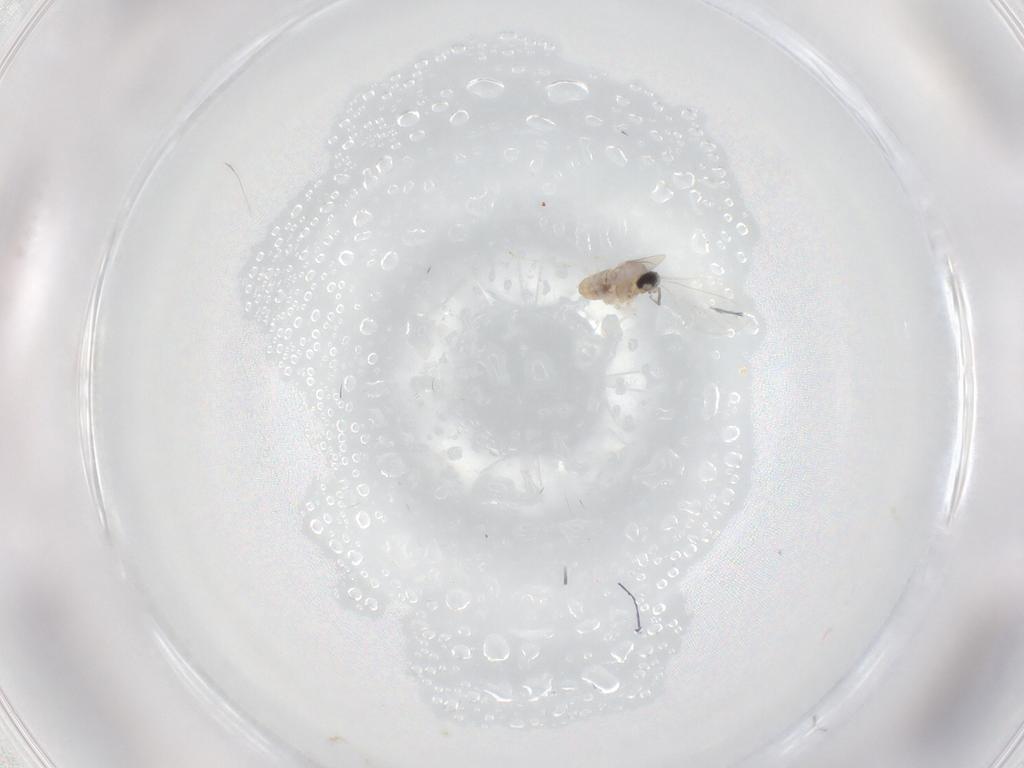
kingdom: Animalia
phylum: Arthropoda
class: Insecta
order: Diptera
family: Cecidomyiidae
